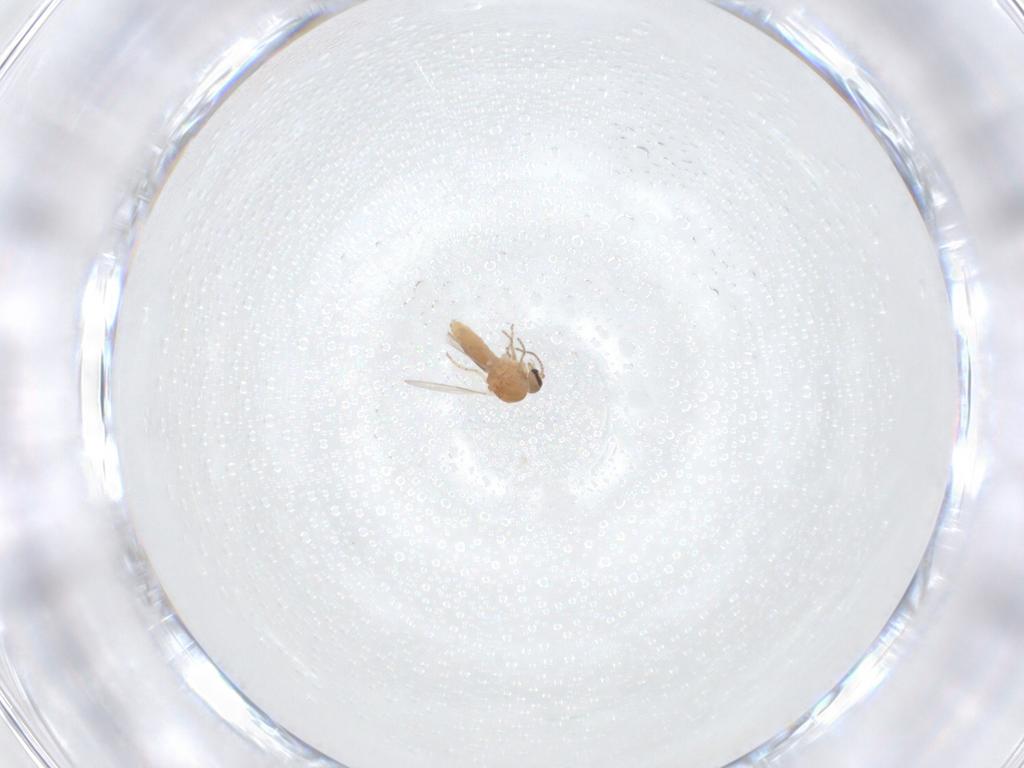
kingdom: Animalia
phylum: Arthropoda
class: Insecta
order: Diptera
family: Ceratopogonidae
